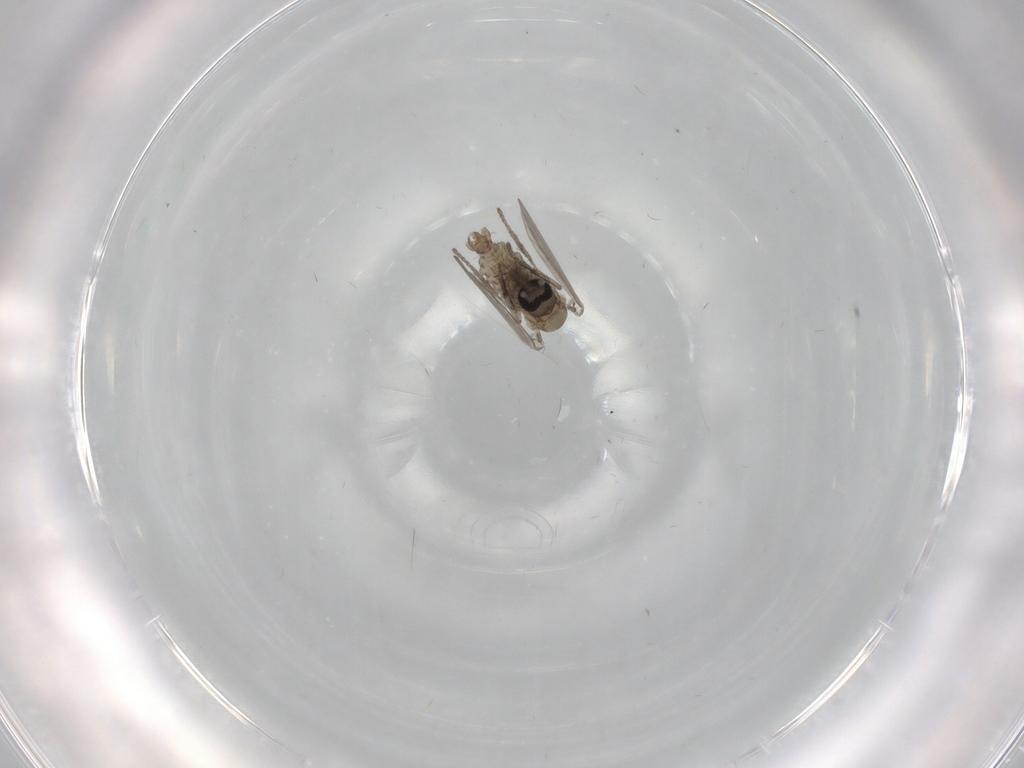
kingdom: Animalia
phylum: Arthropoda
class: Insecta
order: Diptera
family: Psychodidae
